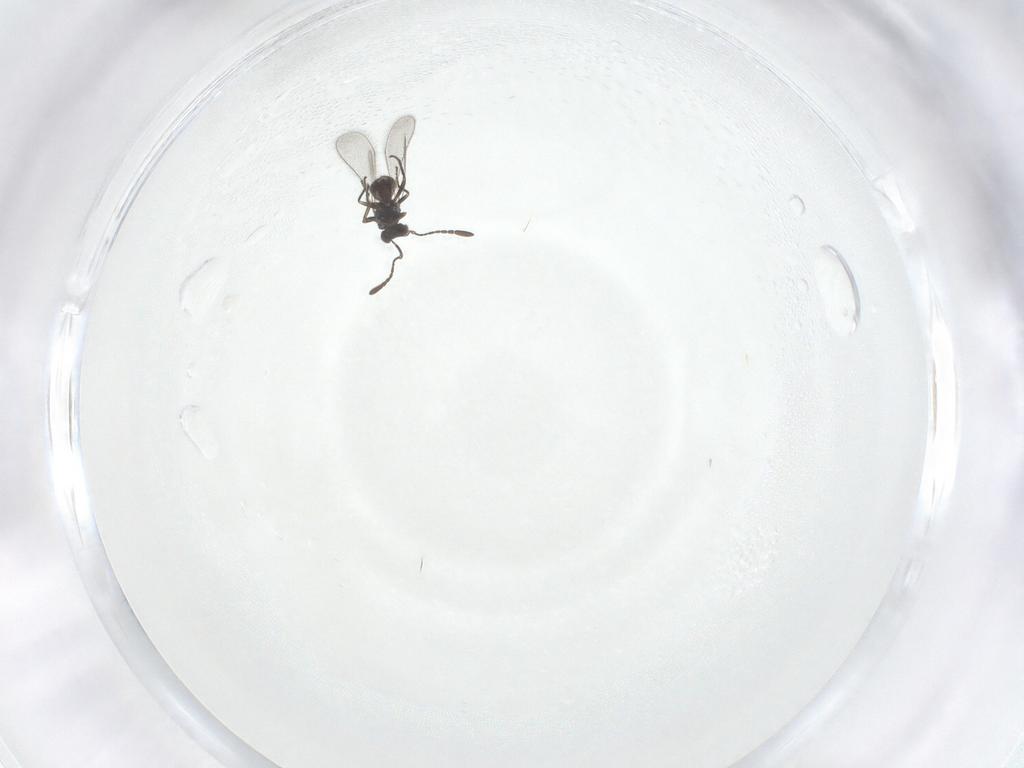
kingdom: Animalia
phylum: Arthropoda
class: Insecta
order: Hymenoptera
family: Mymaridae
